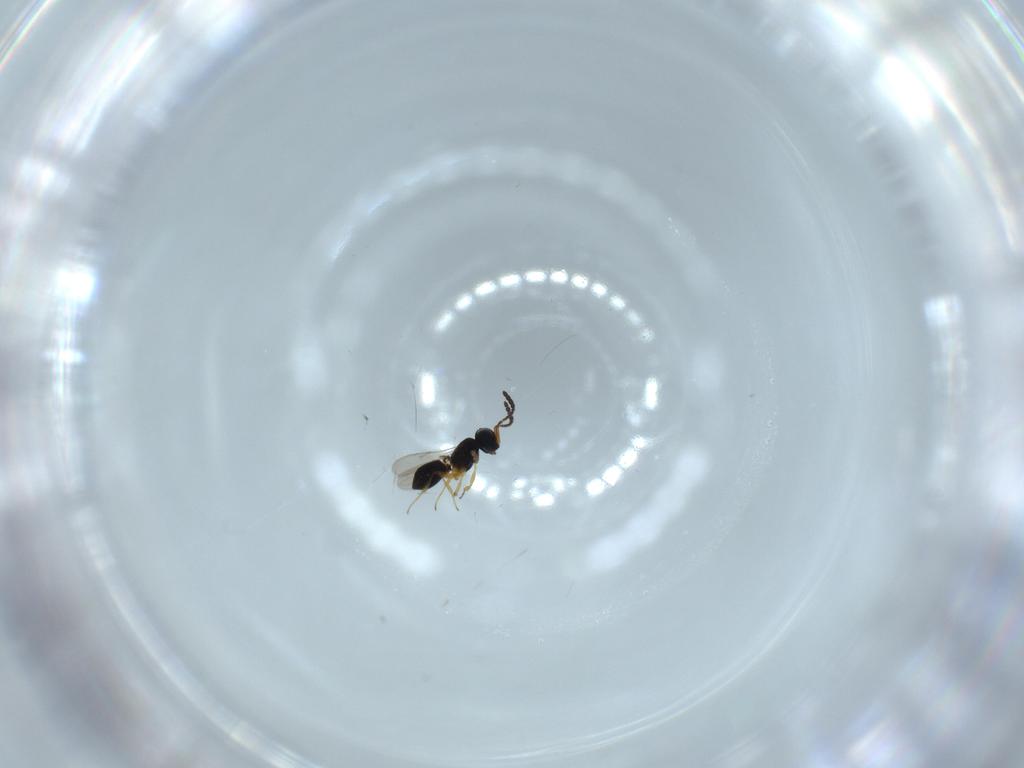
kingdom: Animalia
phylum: Arthropoda
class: Insecta
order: Hymenoptera
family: Scelionidae
